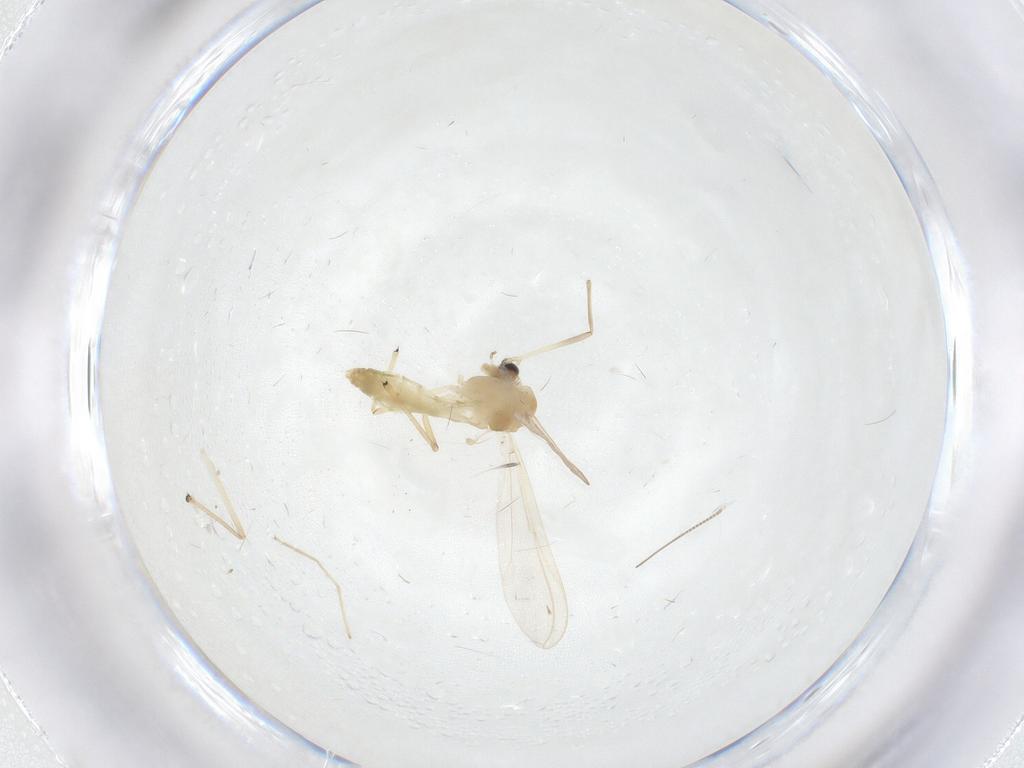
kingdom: Animalia
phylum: Arthropoda
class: Insecta
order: Diptera
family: Chironomidae
